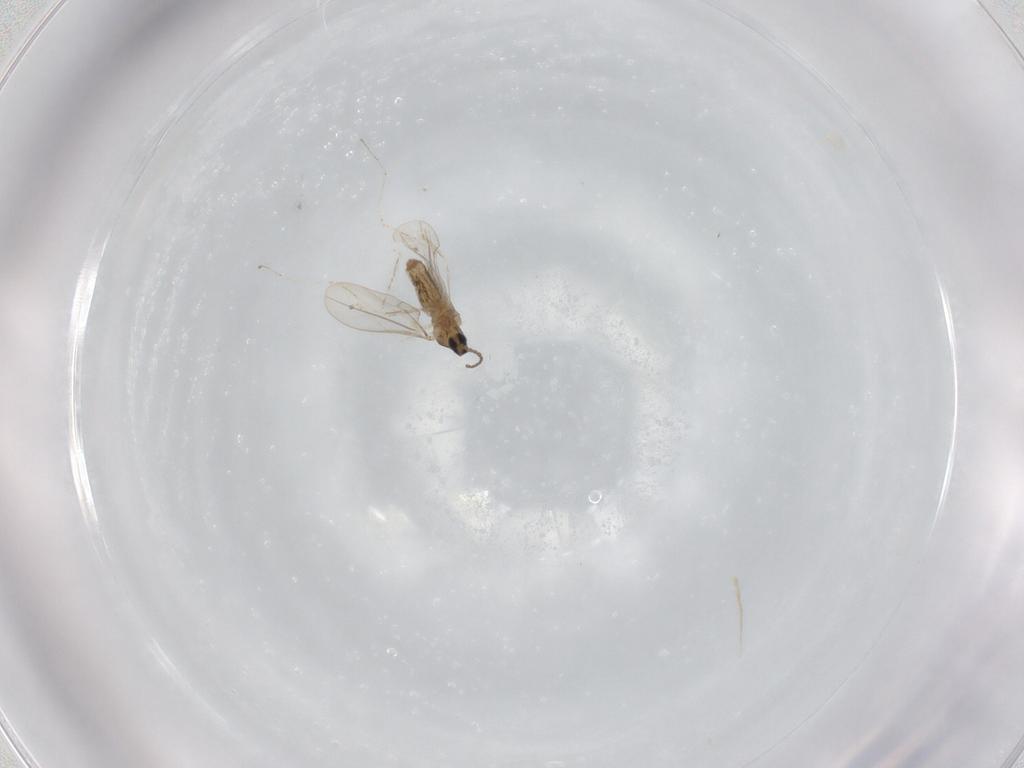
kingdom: Animalia
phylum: Arthropoda
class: Insecta
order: Diptera
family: Cecidomyiidae
